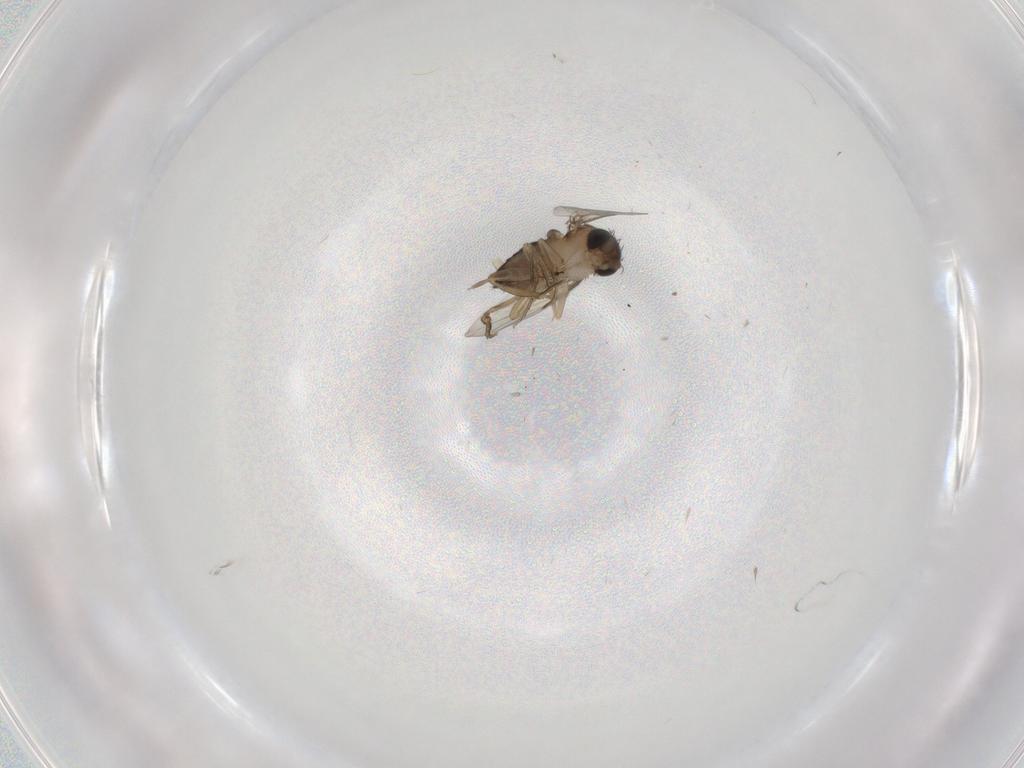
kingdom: Animalia
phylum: Arthropoda
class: Insecta
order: Diptera
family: Phoridae
